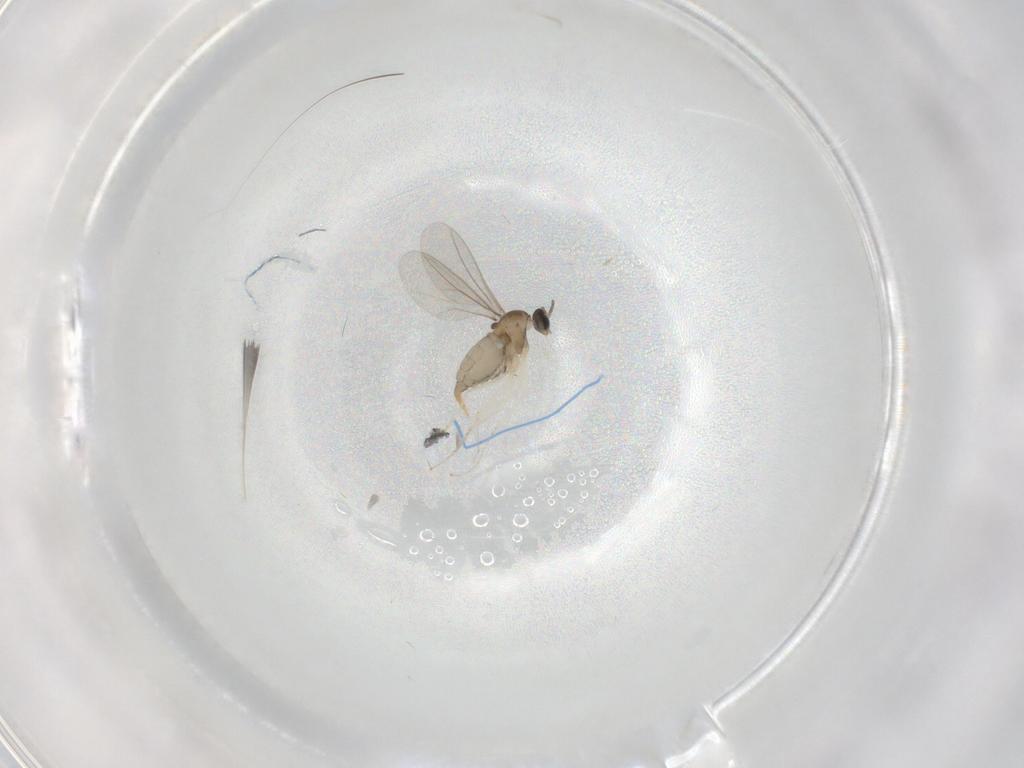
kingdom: Animalia
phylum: Arthropoda
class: Insecta
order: Diptera
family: Cecidomyiidae
